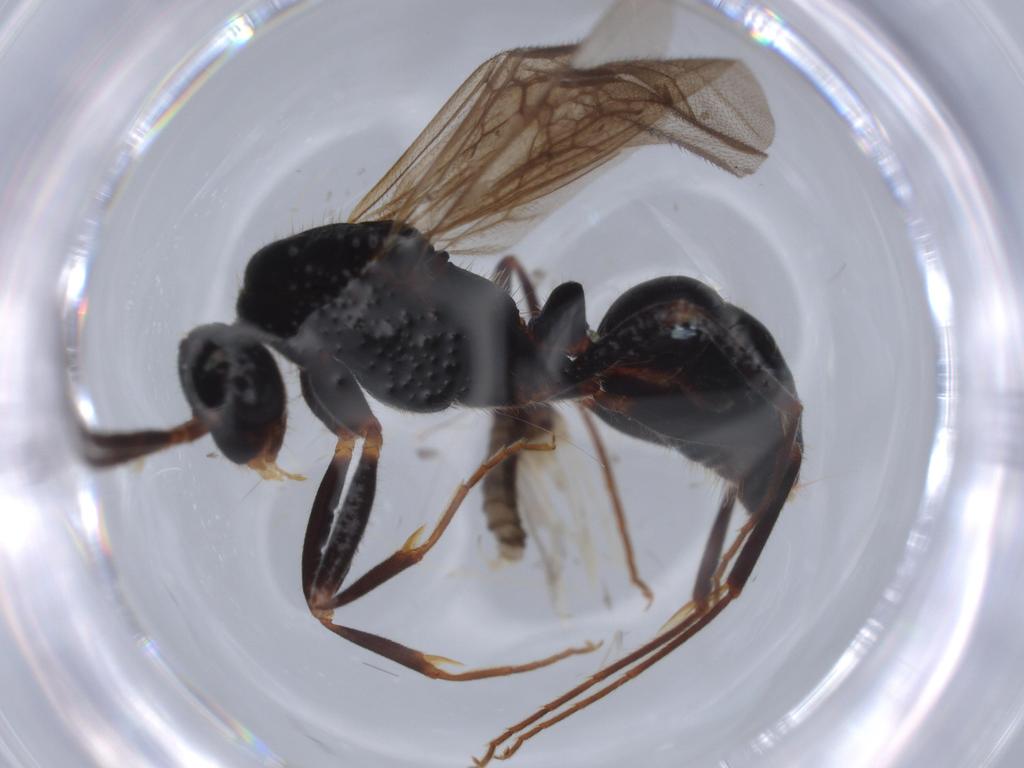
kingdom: Animalia
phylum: Arthropoda
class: Insecta
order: Hymenoptera
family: Formicidae
